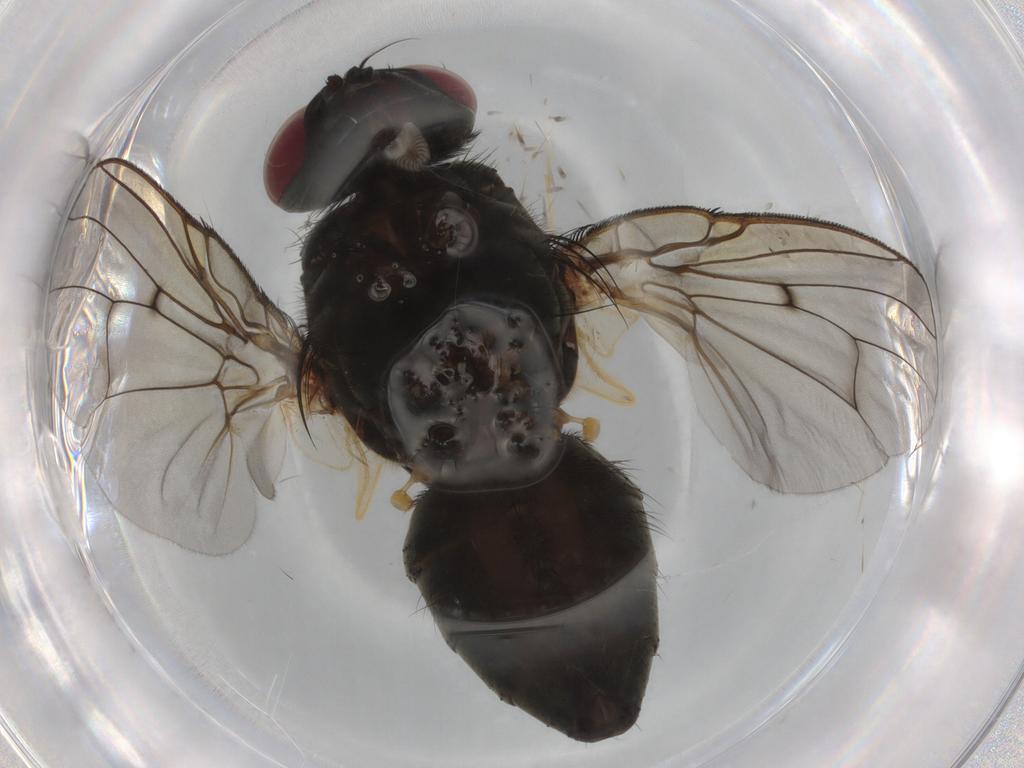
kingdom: Animalia
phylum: Arthropoda
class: Insecta
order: Diptera
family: Muscidae
